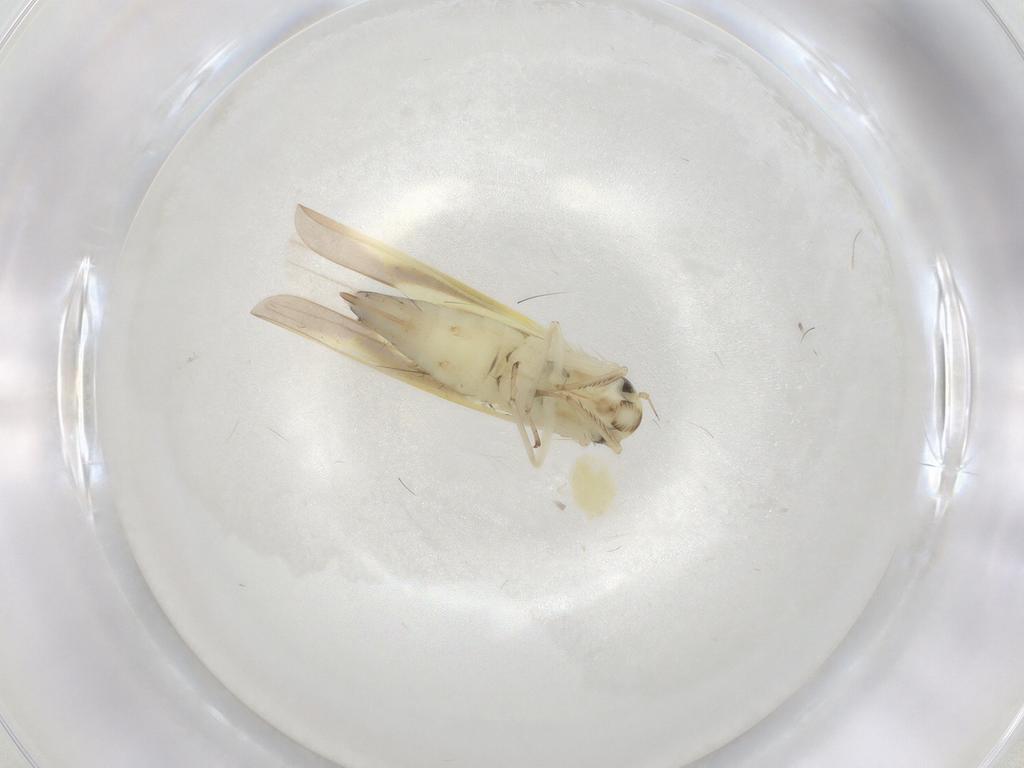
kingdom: Animalia
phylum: Arthropoda
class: Insecta
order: Hemiptera
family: Cicadellidae
